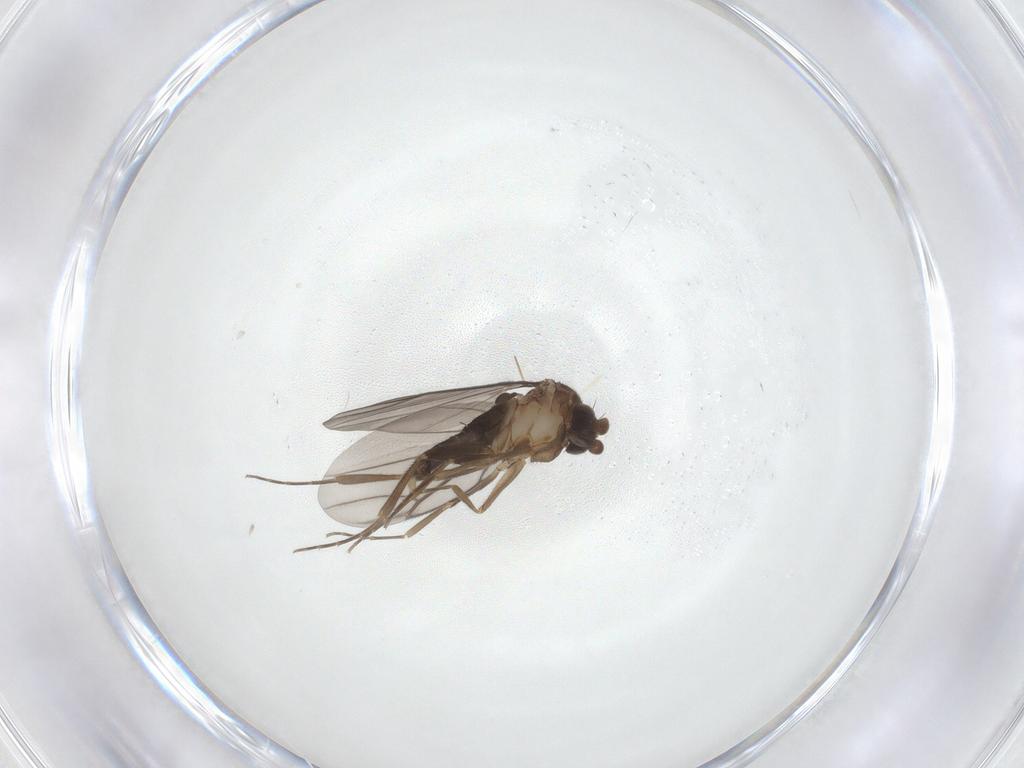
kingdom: Animalia
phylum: Arthropoda
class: Insecta
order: Diptera
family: Phoridae
